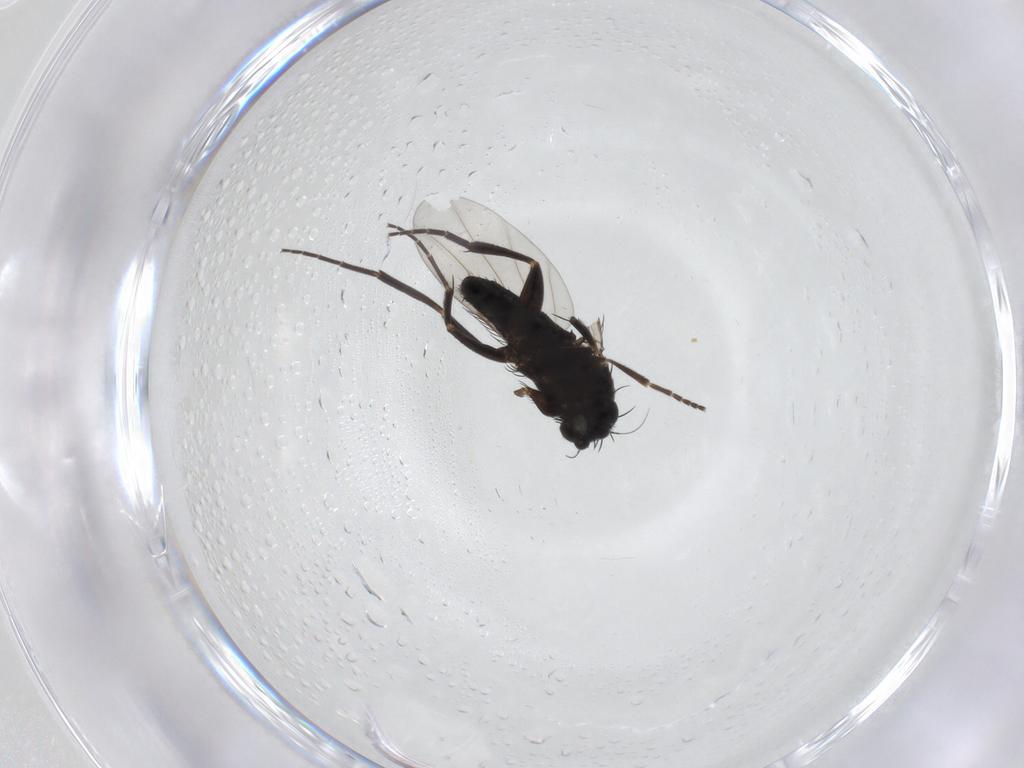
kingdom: Animalia
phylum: Arthropoda
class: Insecta
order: Diptera
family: Phoridae
